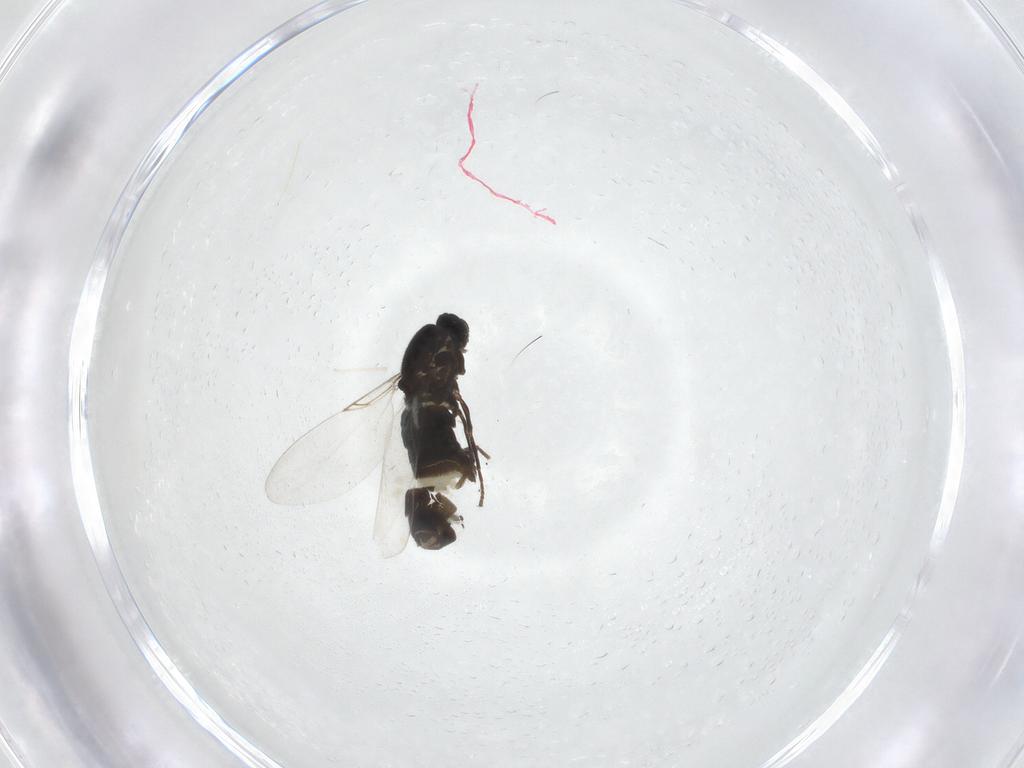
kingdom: Animalia
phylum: Arthropoda
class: Insecta
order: Diptera
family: Scatopsidae
